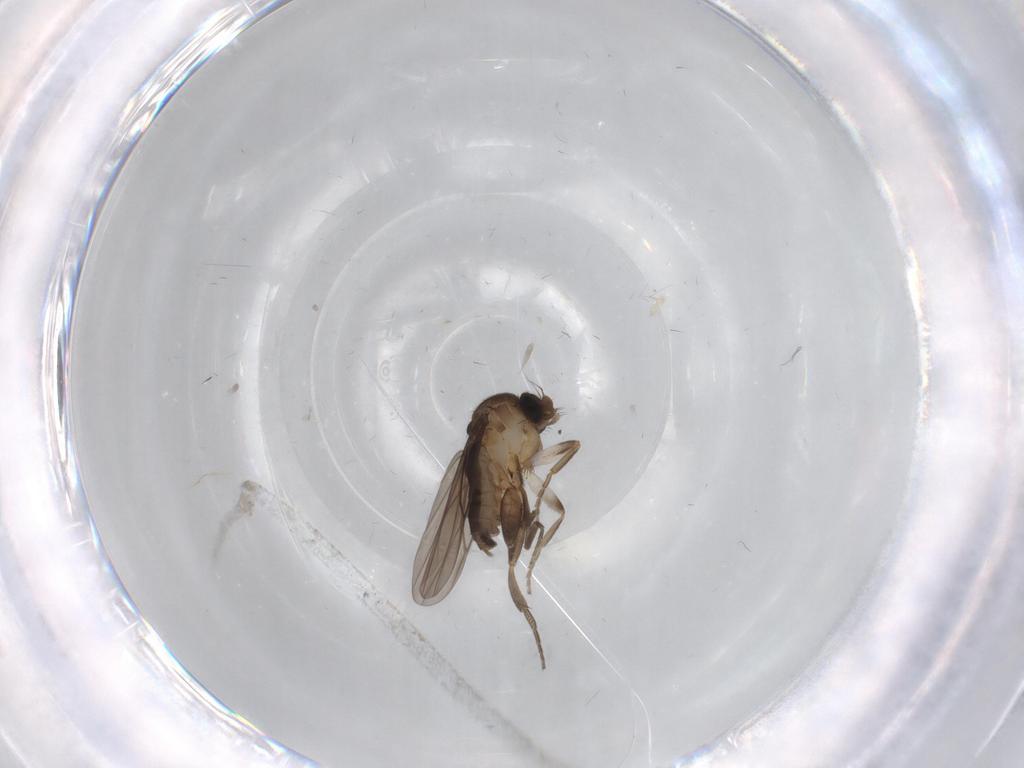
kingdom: Animalia
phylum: Arthropoda
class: Insecta
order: Diptera
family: Limoniidae
